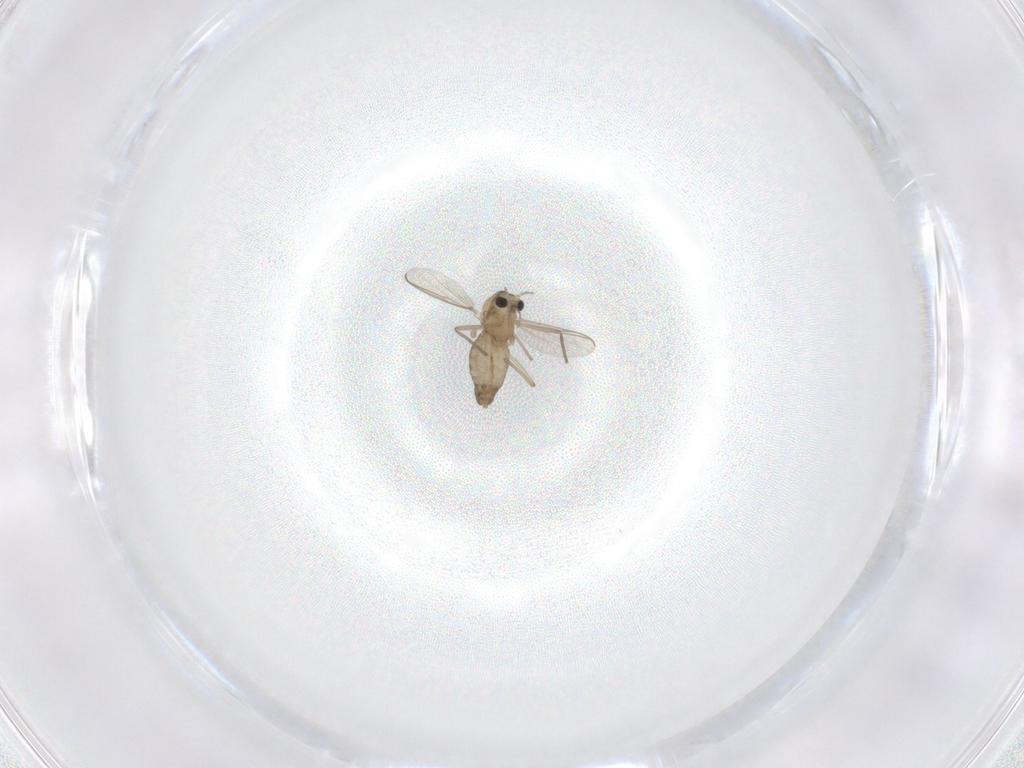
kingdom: Animalia
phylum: Arthropoda
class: Insecta
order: Diptera
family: Chironomidae
